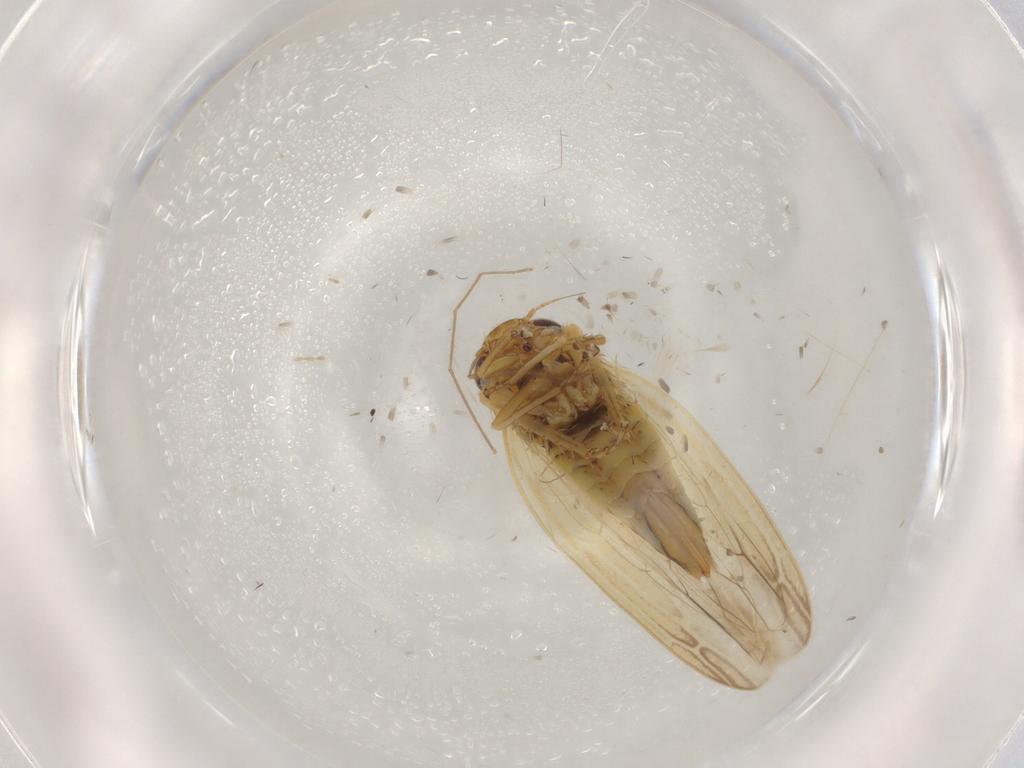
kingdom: Animalia
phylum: Arthropoda
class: Insecta
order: Hemiptera
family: Cicadellidae
